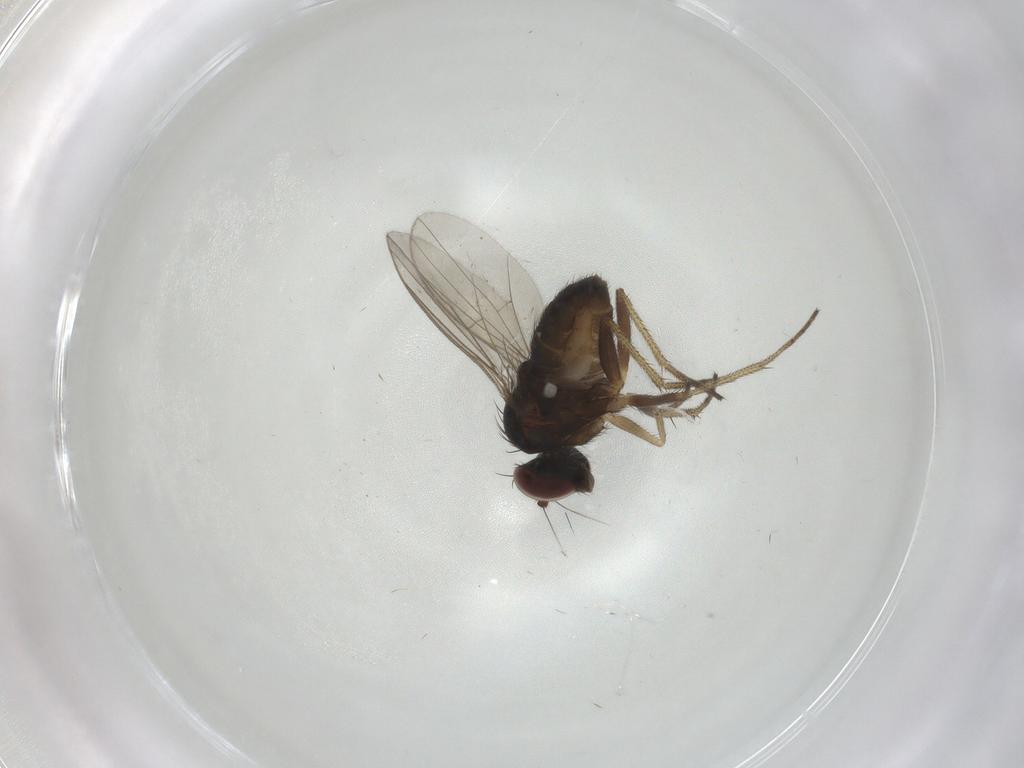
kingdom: Animalia
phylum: Arthropoda
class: Insecta
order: Diptera
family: Dolichopodidae
